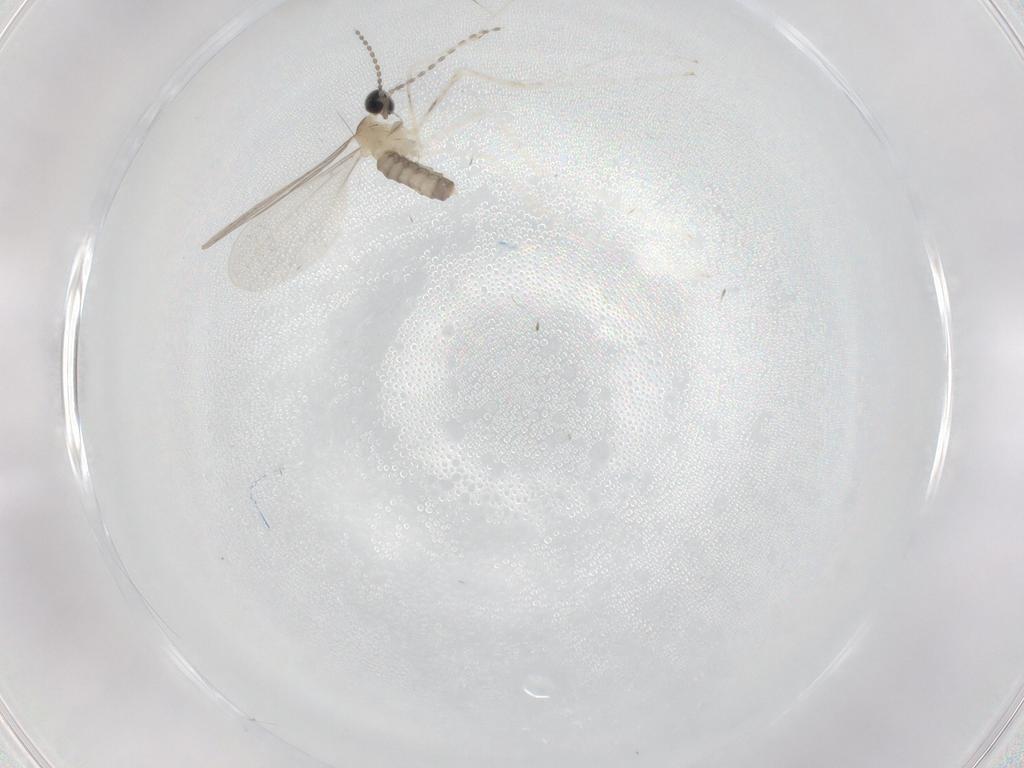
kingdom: Animalia
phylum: Arthropoda
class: Insecta
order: Diptera
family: Cecidomyiidae
